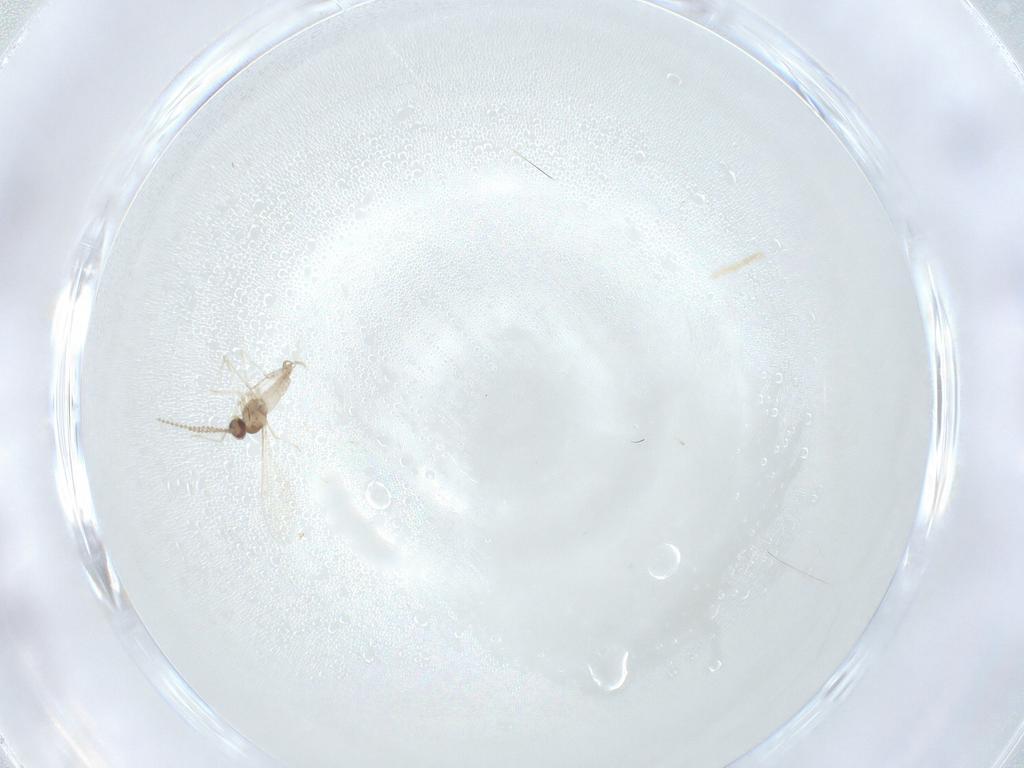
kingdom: Animalia
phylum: Arthropoda
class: Insecta
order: Diptera
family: Cecidomyiidae
